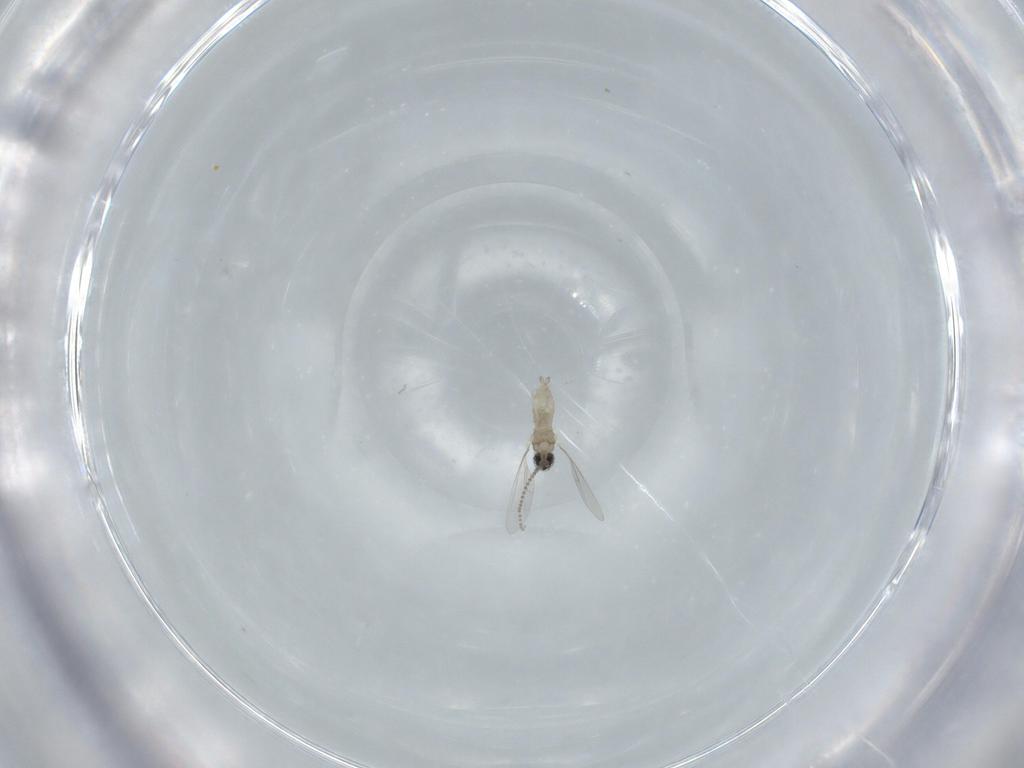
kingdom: Animalia
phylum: Arthropoda
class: Insecta
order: Diptera
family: Cecidomyiidae
